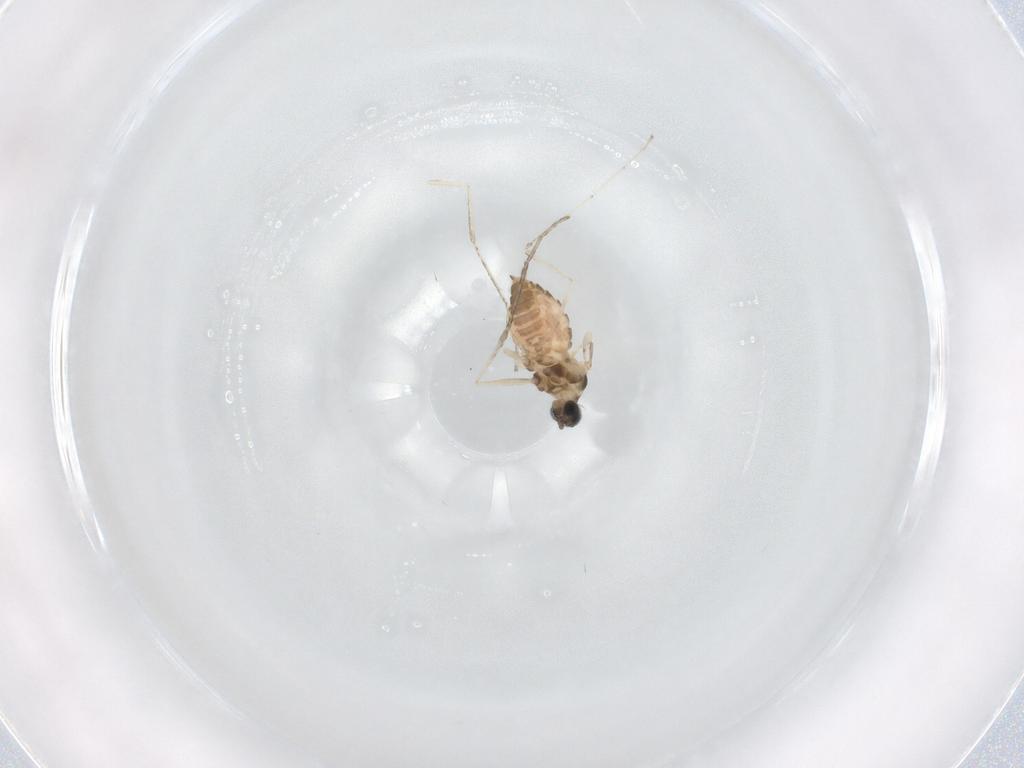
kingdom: Animalia
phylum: Arthropoda
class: Insecta
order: Diptera
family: Cecidomyiidae
